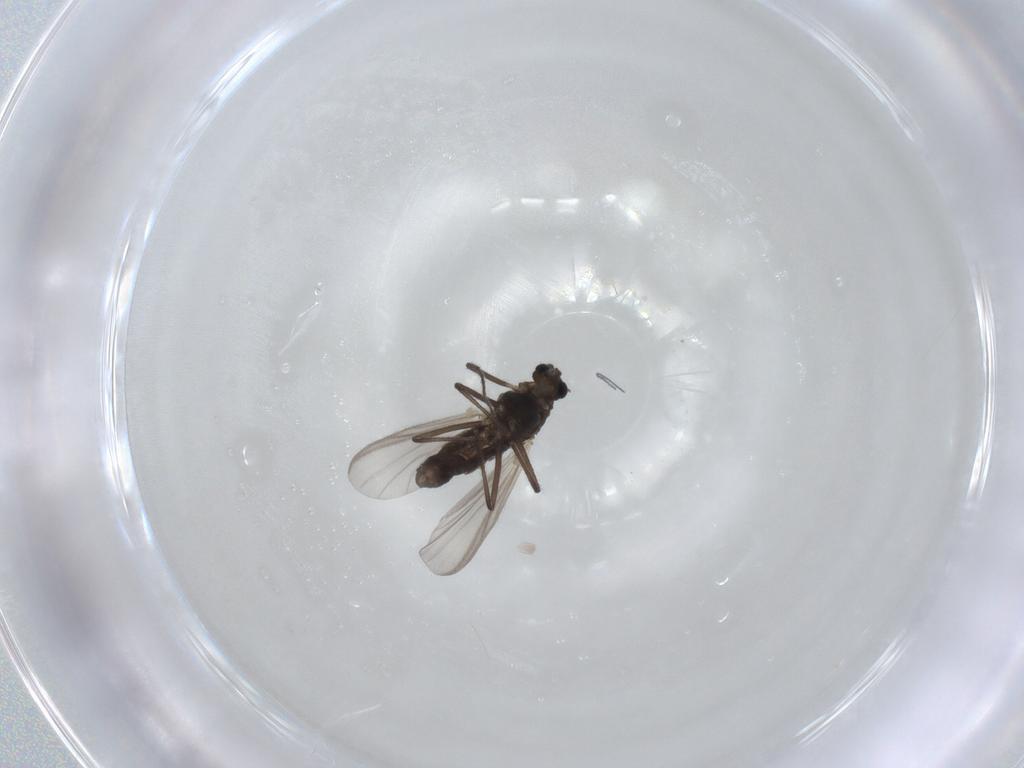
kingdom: Animalia
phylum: Arthropoda
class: Insecta
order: Diptera
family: Chironomidae
